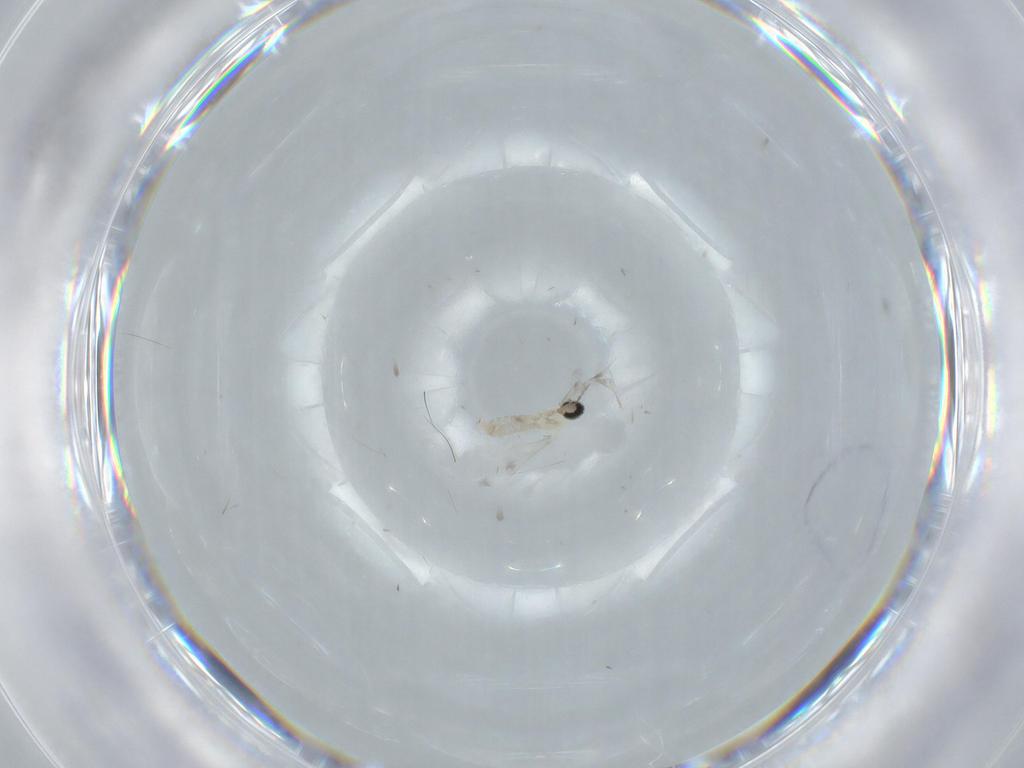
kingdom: Animalia
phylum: Arthropoda
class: Insecta
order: Diptera
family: Cecidomyiidae
